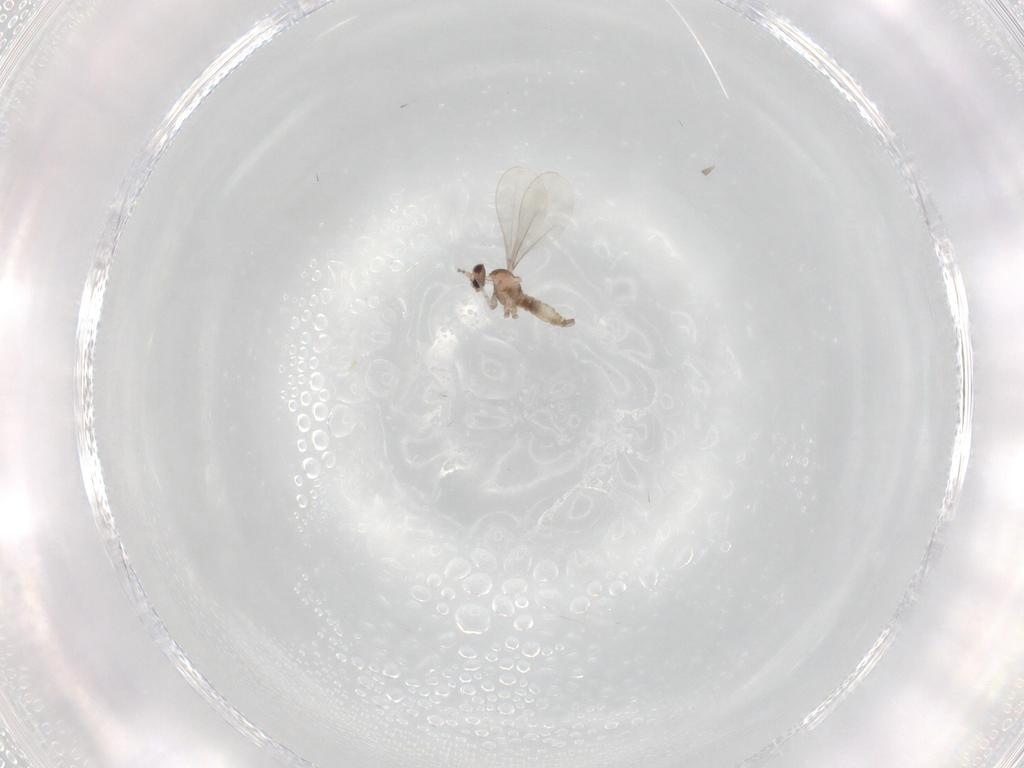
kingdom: Animalia
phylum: Arthropoda
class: Insecta
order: Diptera
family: Cecidomyiidae
